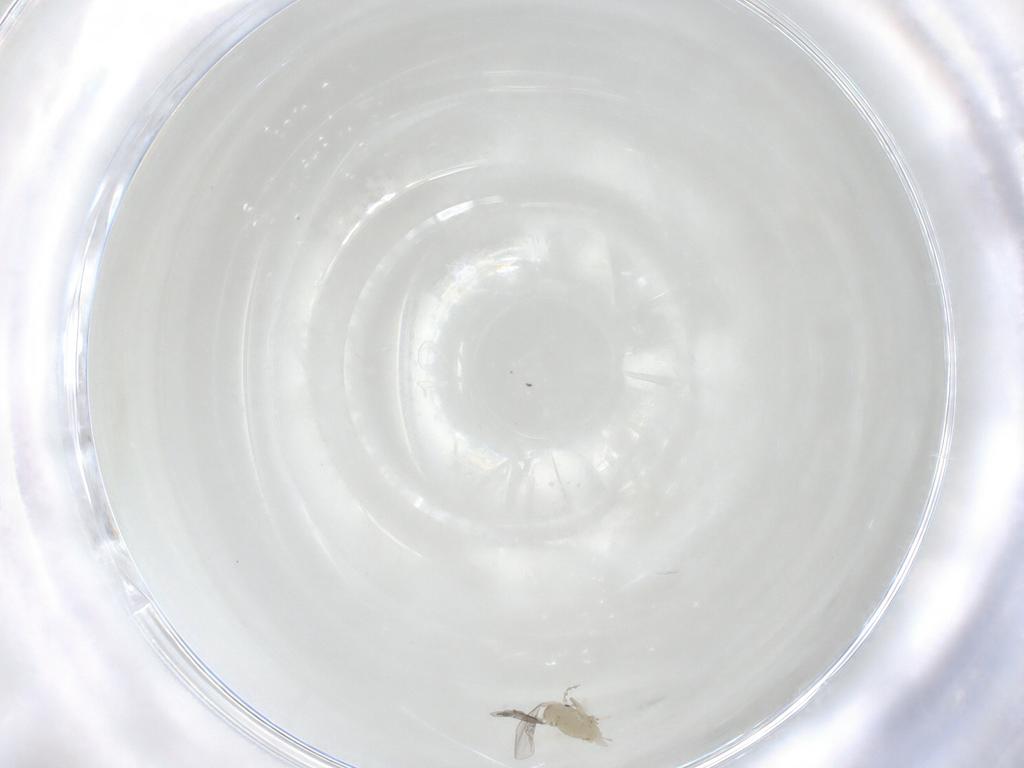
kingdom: Animalia
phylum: Arthropoda
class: Insecta
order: Diptera
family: Cecidomyiidae
